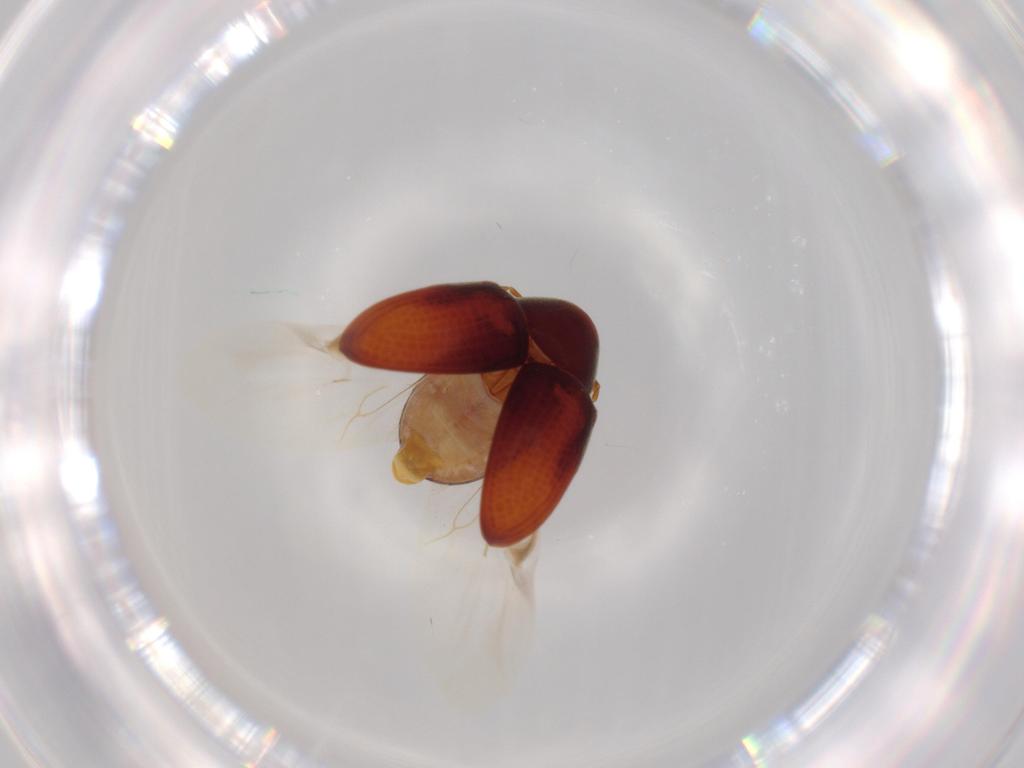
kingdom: Animalia
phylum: Arthropoda
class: Insecta
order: Coleoptera
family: Ptinidae
